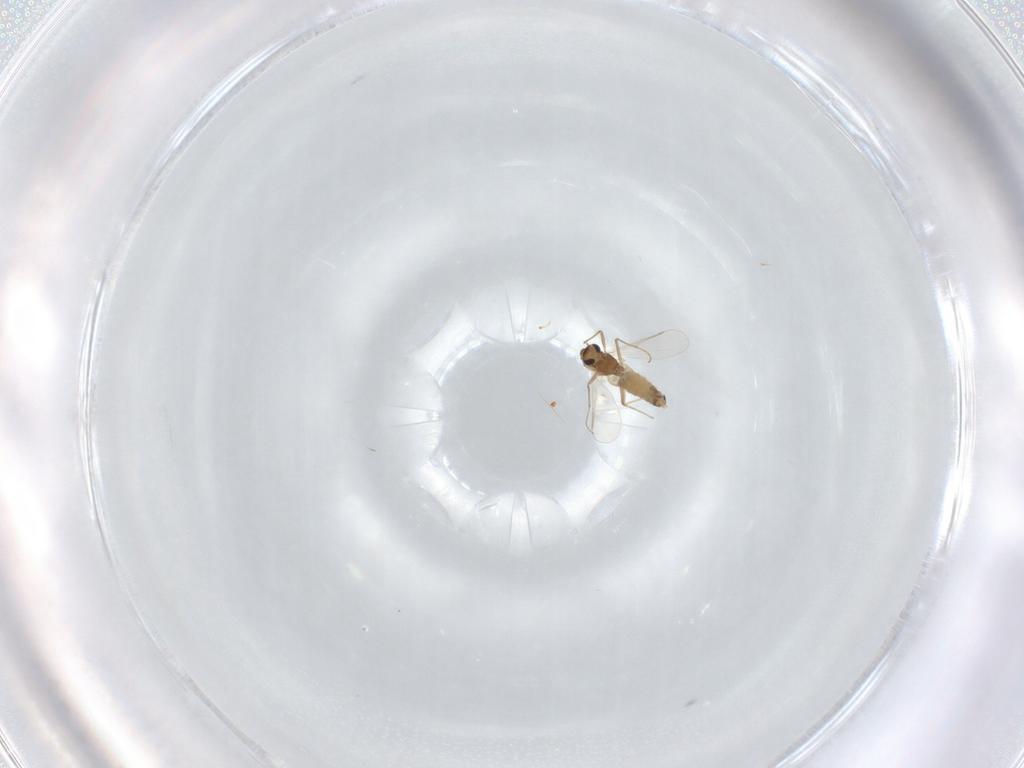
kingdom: Animalia
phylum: Arthropoda
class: Insecta
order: Diptera
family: Chironomidae
